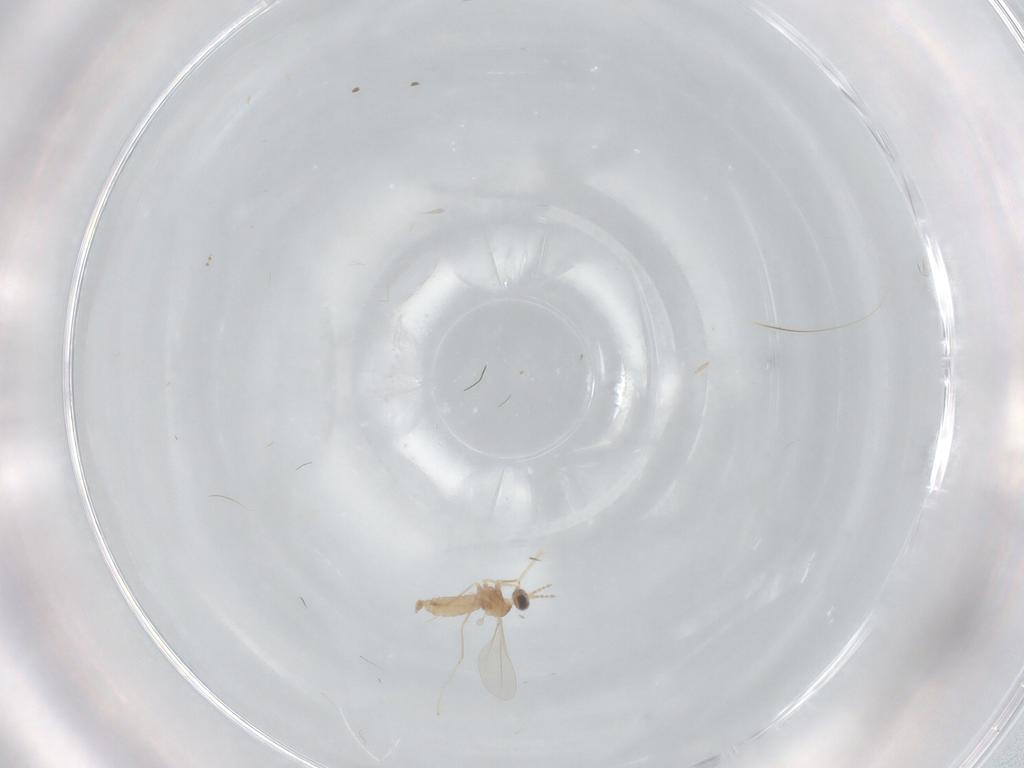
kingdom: Animalia
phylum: Arthropoda
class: Insecta
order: Diptera
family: Cecidomyiidae
